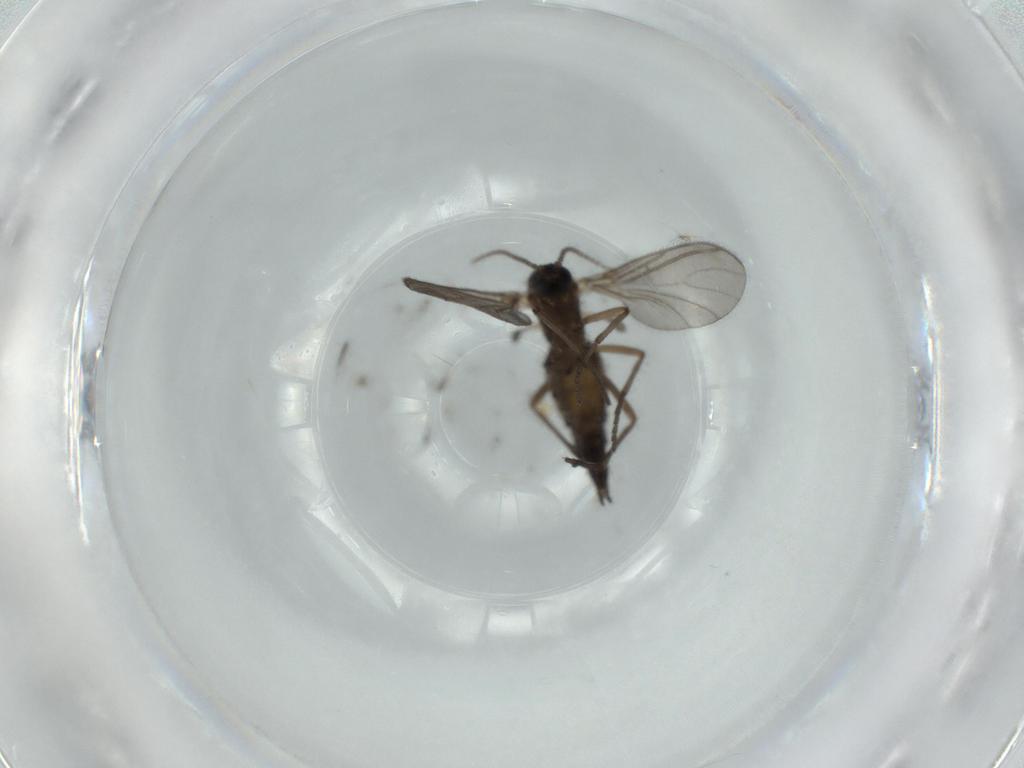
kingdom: Animalia
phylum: Arthropoda
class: Insecta
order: Diptera
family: Sciaridae
